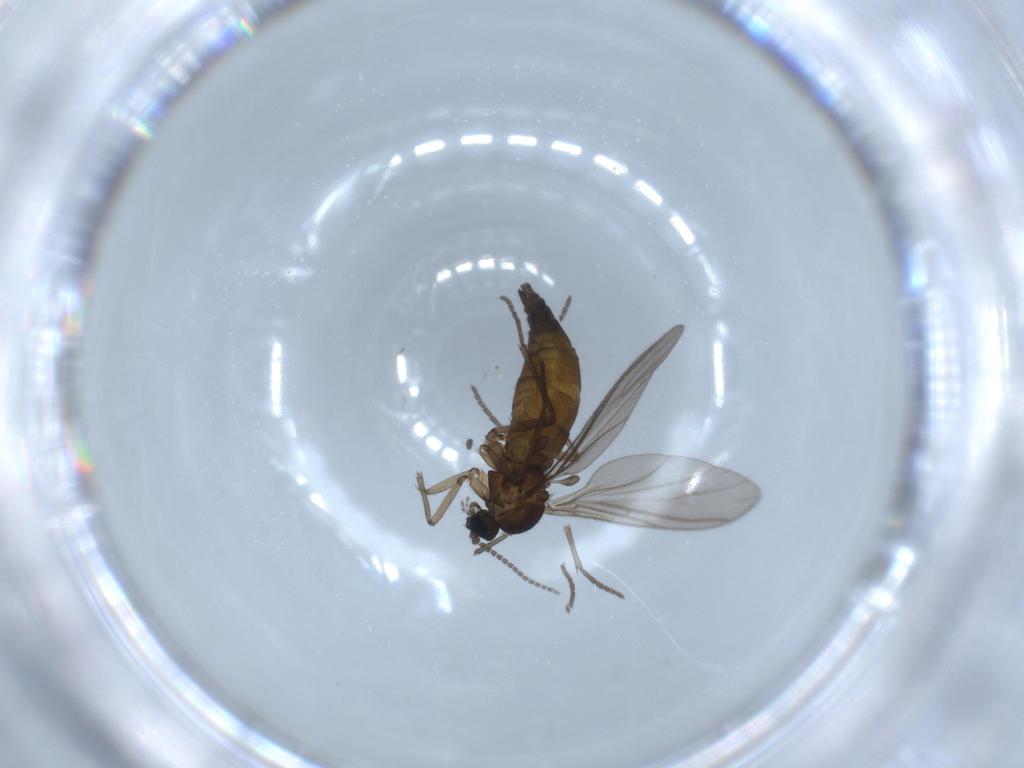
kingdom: Animalia
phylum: Arthropoda
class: Insecta
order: Diptera
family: Sciaridae
